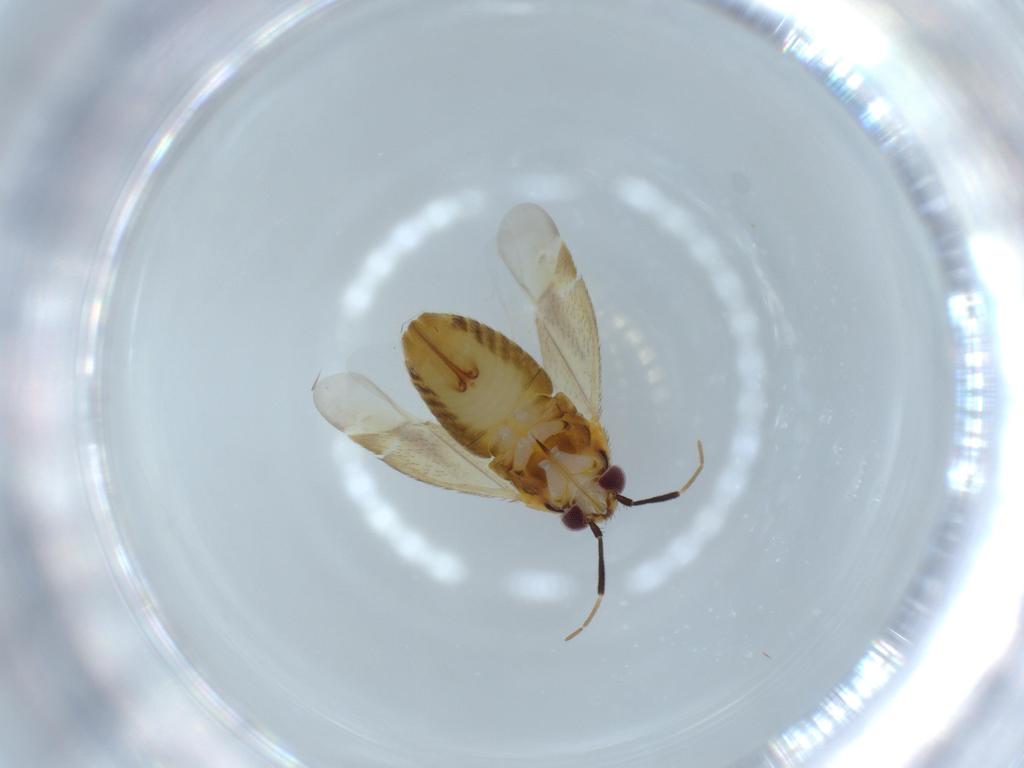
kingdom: Animalia
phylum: Arthropoda
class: Insecta
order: Hemiptera
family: Miridae
